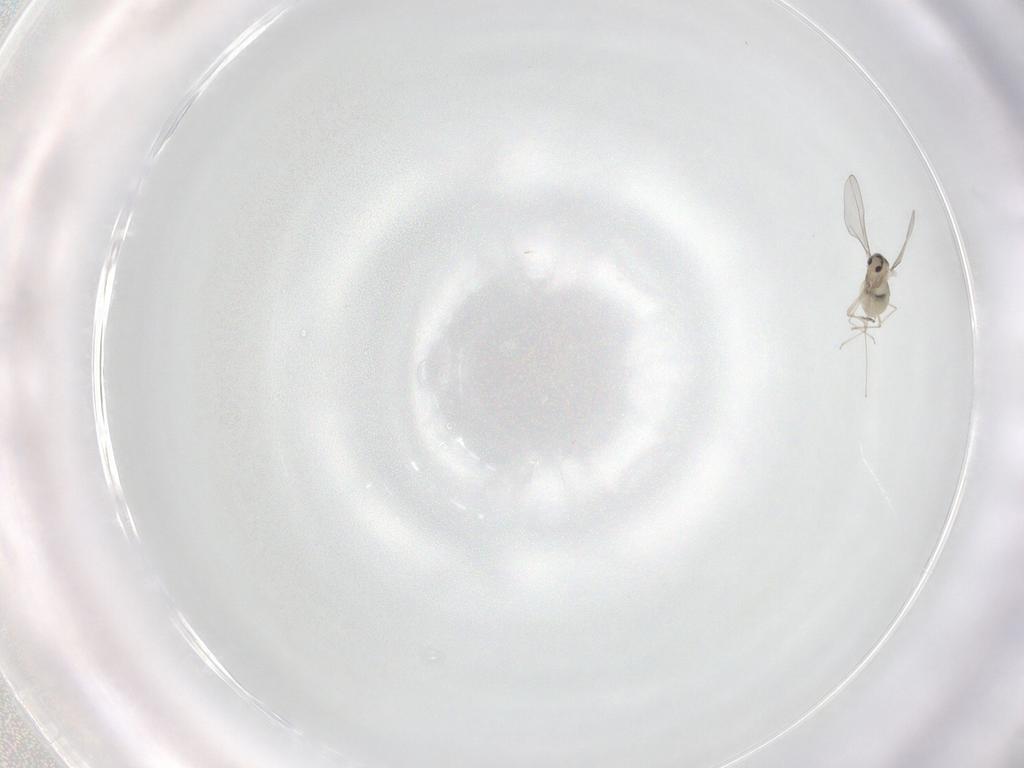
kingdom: Animalia
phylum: Arthropoda
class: Insecta
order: Diptera
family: Cecidomyiidae
